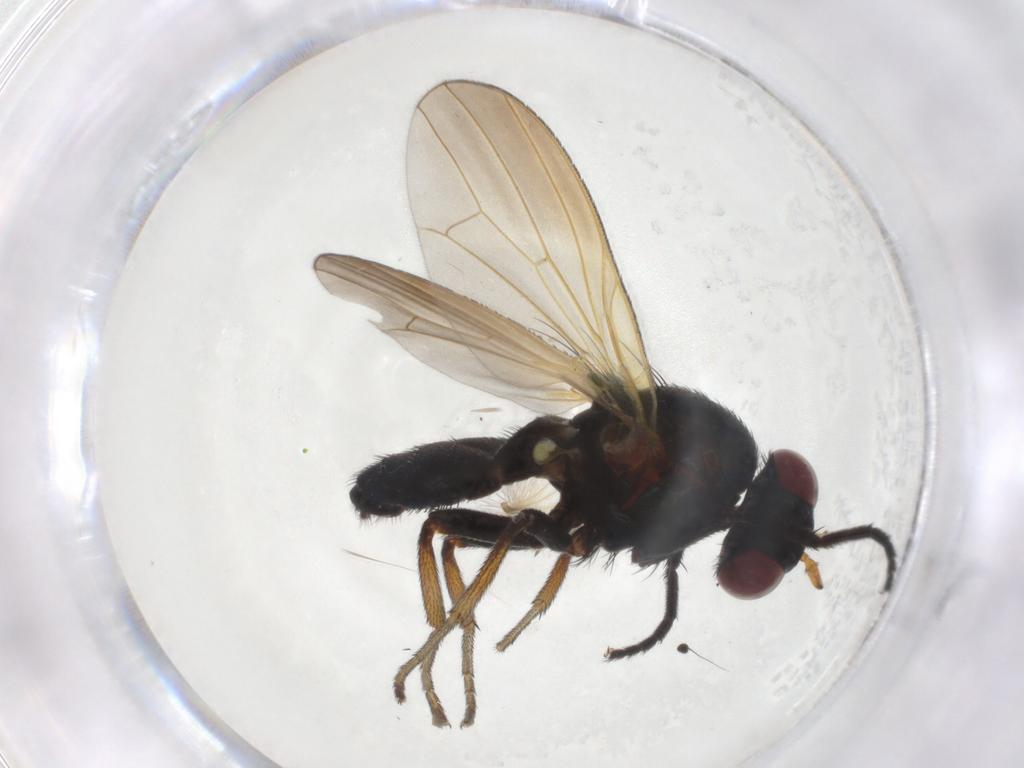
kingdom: Animalia
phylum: Arthropoda
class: Insecta
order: Diptera
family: Lauxaniidae
